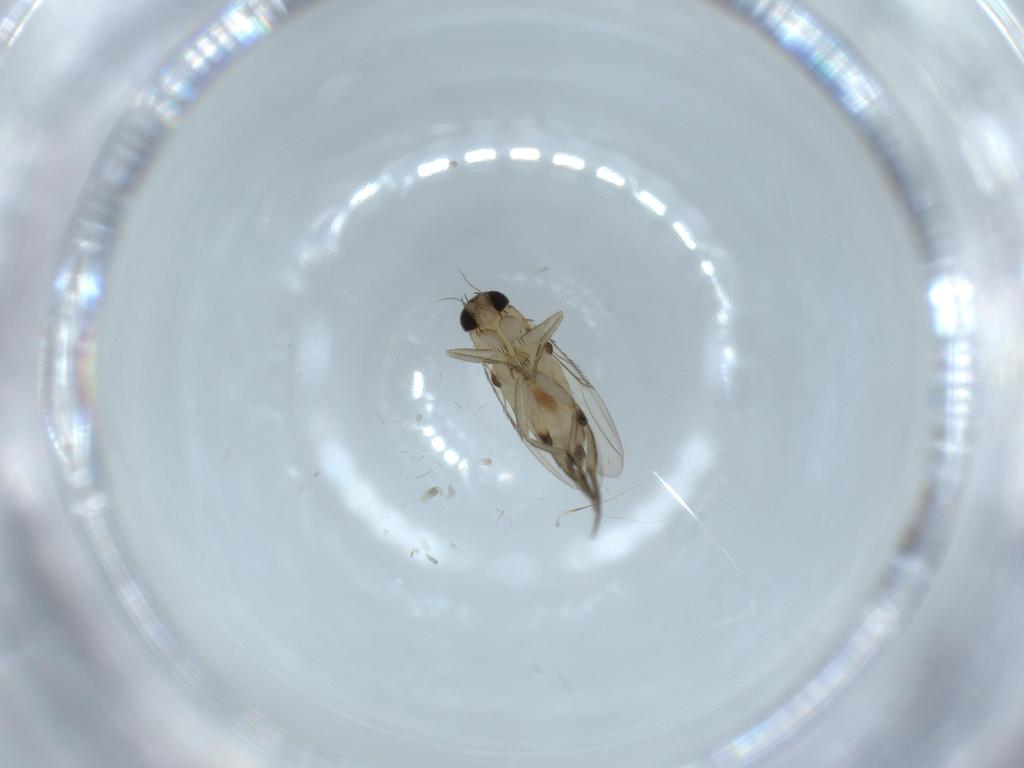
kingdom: Animalia
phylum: Arthropoda
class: Insecta
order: Diptera
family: Phoridae
